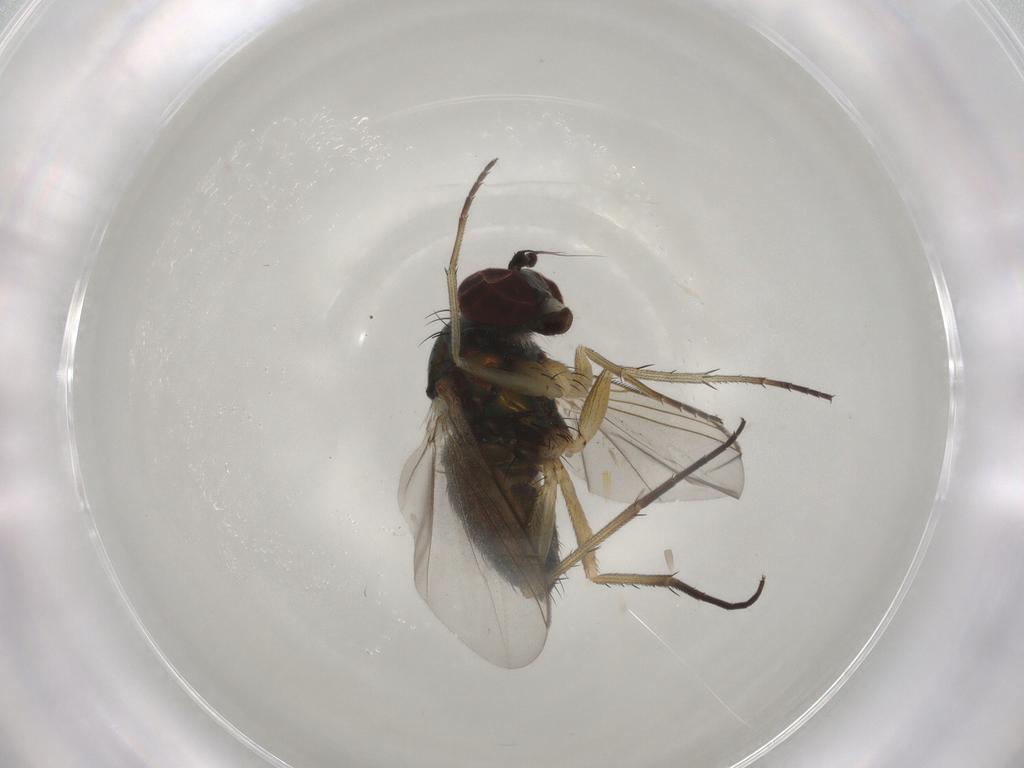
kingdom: Animalia
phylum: Arthropoda
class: Insecta
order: Diptera
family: Dolichopodidae
